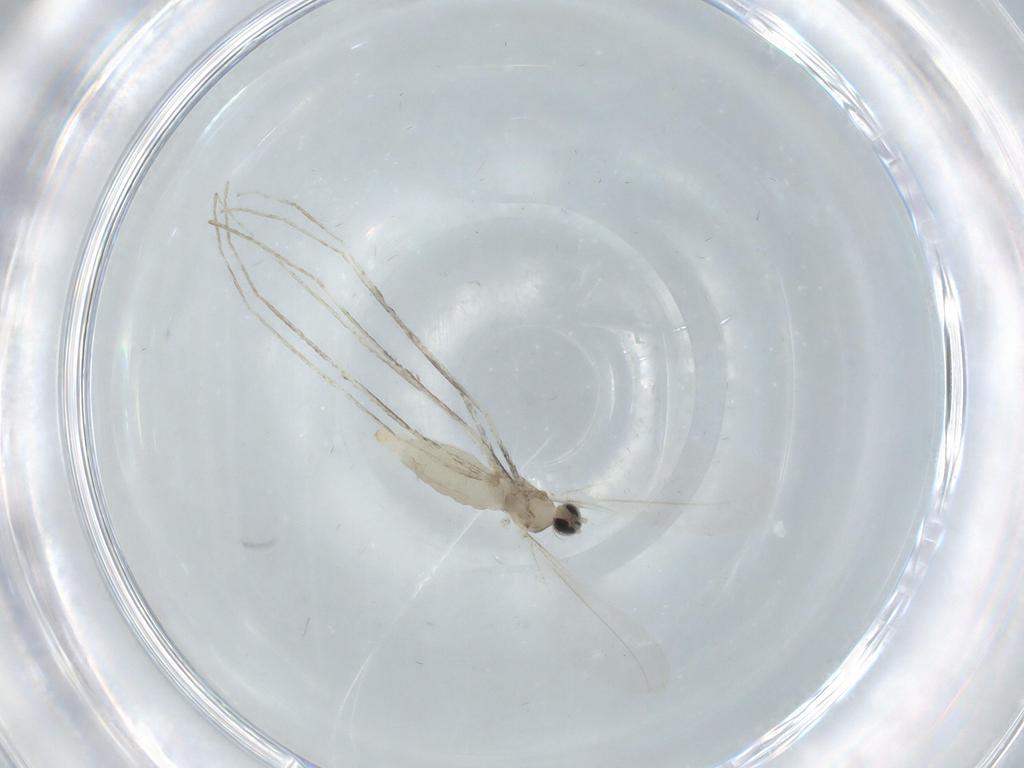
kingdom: Animalia
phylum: Arthropoda
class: Insecta
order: Diptera
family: Cecidomyiidae
